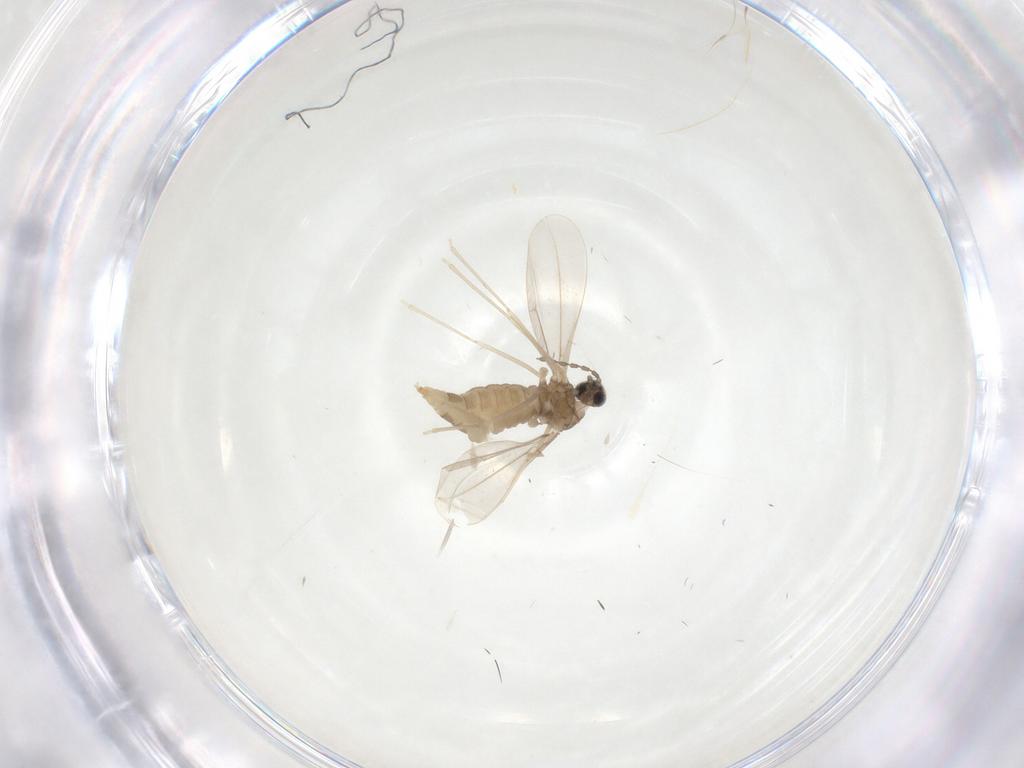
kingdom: Animalia
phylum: Arthropoda
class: Insecta
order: Diptera
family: Cecidomyiidae
